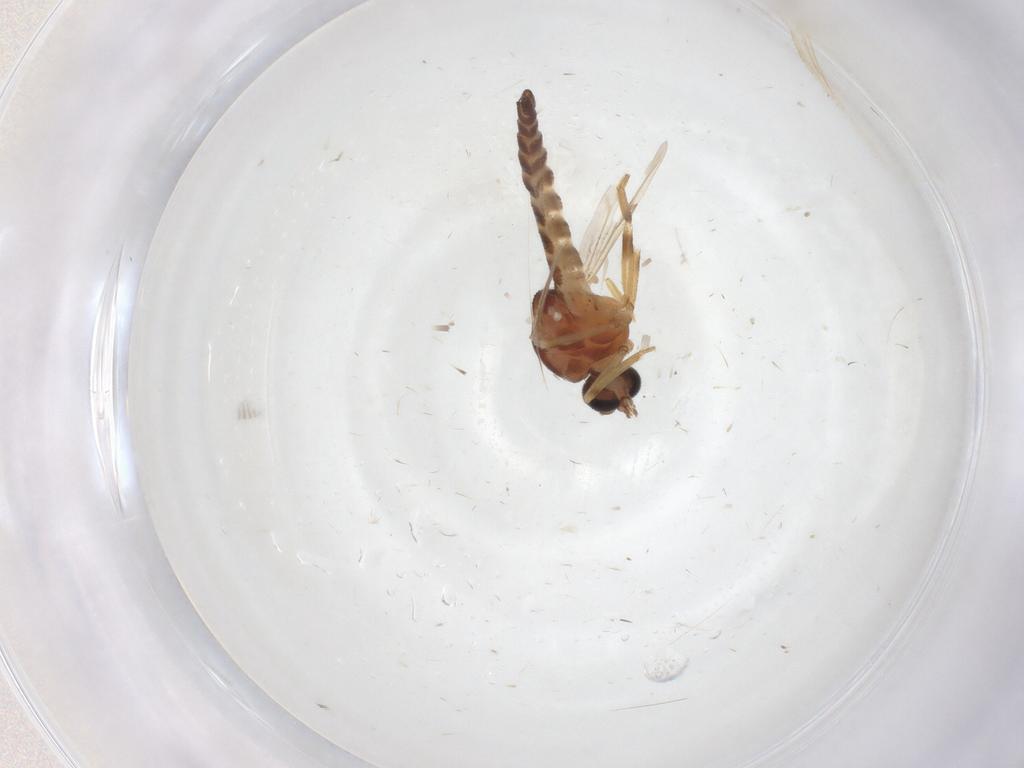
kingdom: Animalia
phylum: Arthropoda
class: Insecta
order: Diptera
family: Ceratopogonidae
